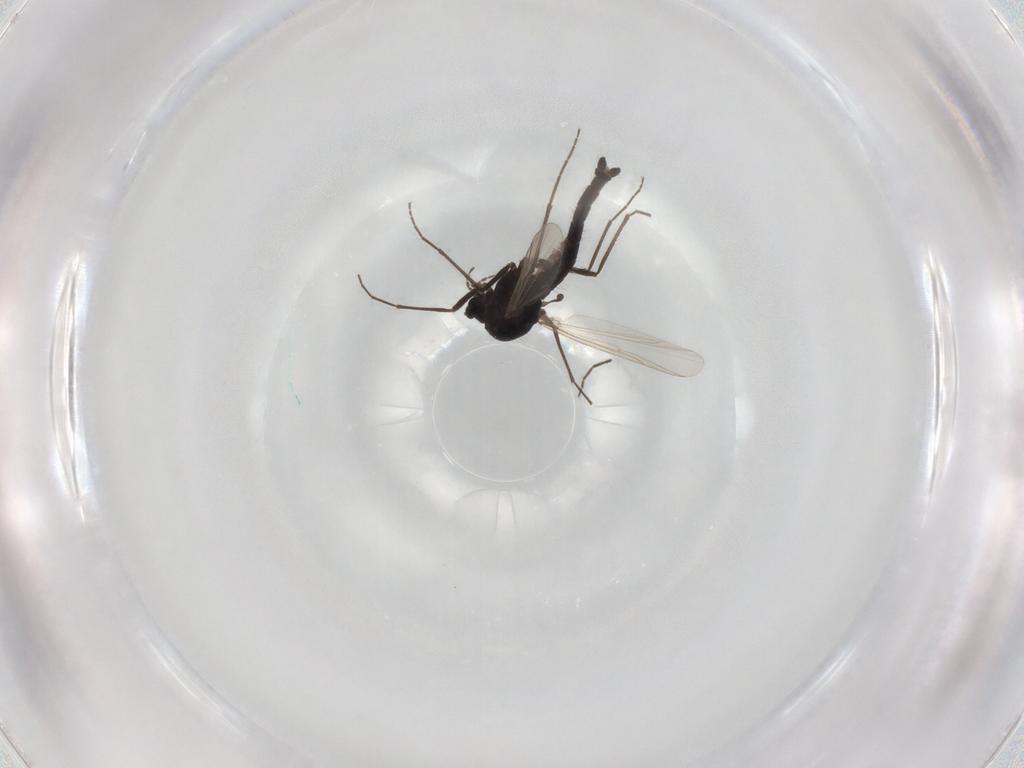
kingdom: Animalia
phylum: Arthropoda
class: Insecta
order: Diptera
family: Chironomidae
